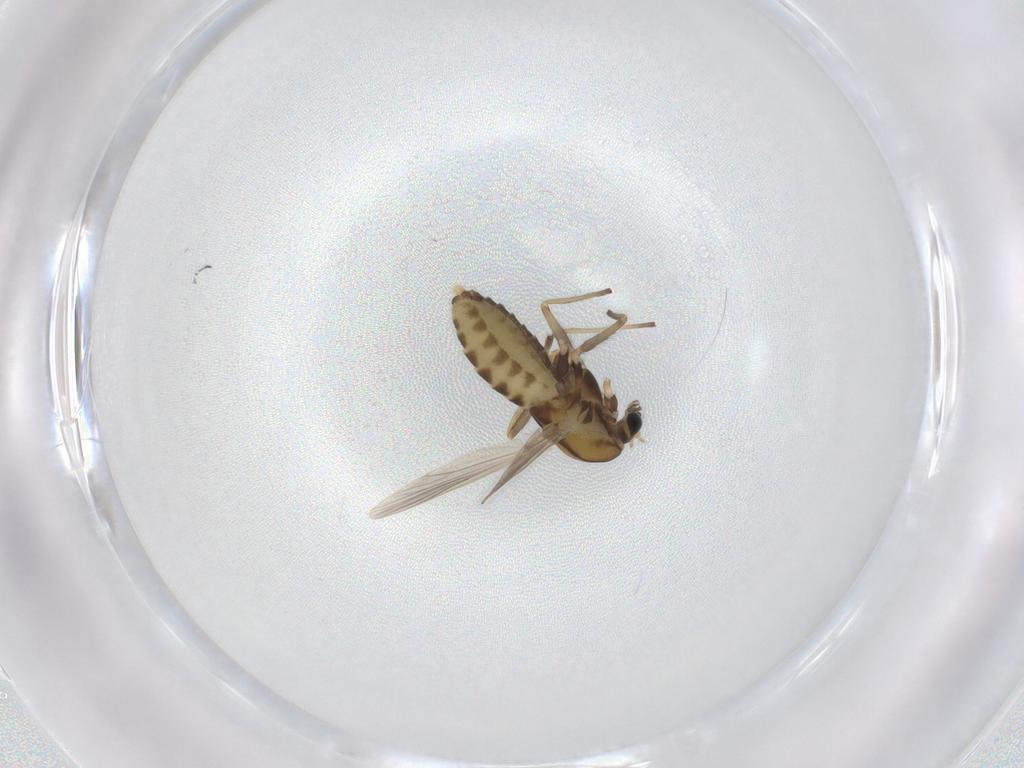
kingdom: Animalia
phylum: Arthropoda
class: Insecta
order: Diptera
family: Chironomidae
